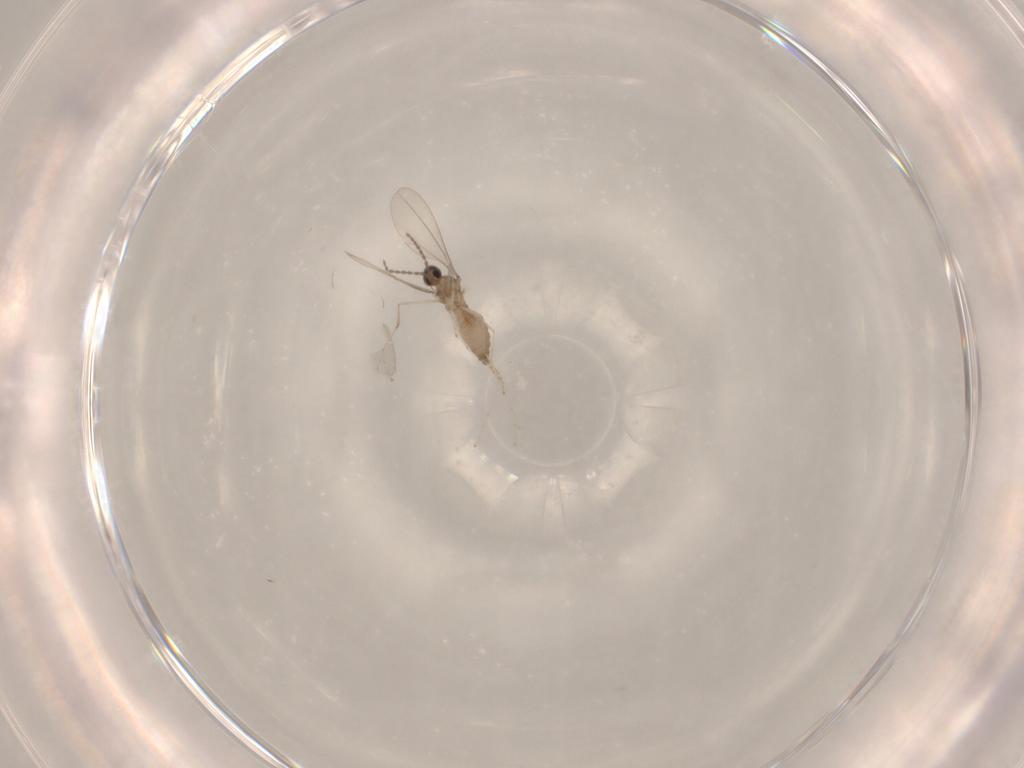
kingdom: Animalia
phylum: Arthropoda
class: Insecta
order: Diptera
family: Cecidomyiidae
